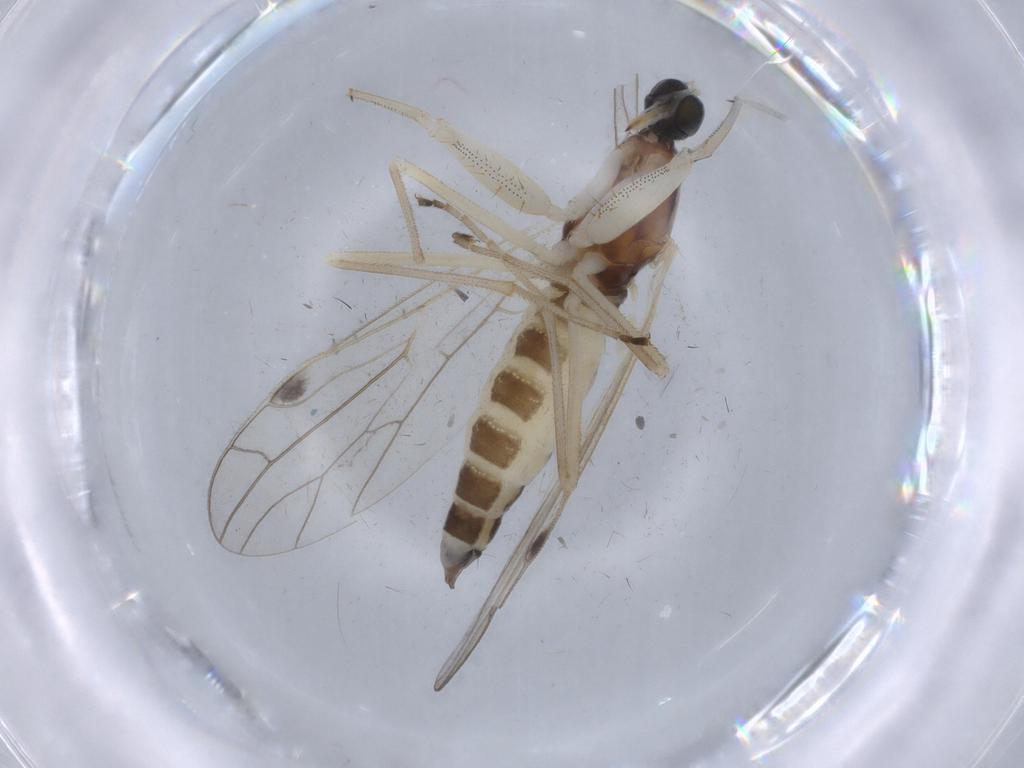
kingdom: Animalia
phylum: Arthropoda
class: Insecta
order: Diptera
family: Empididae
